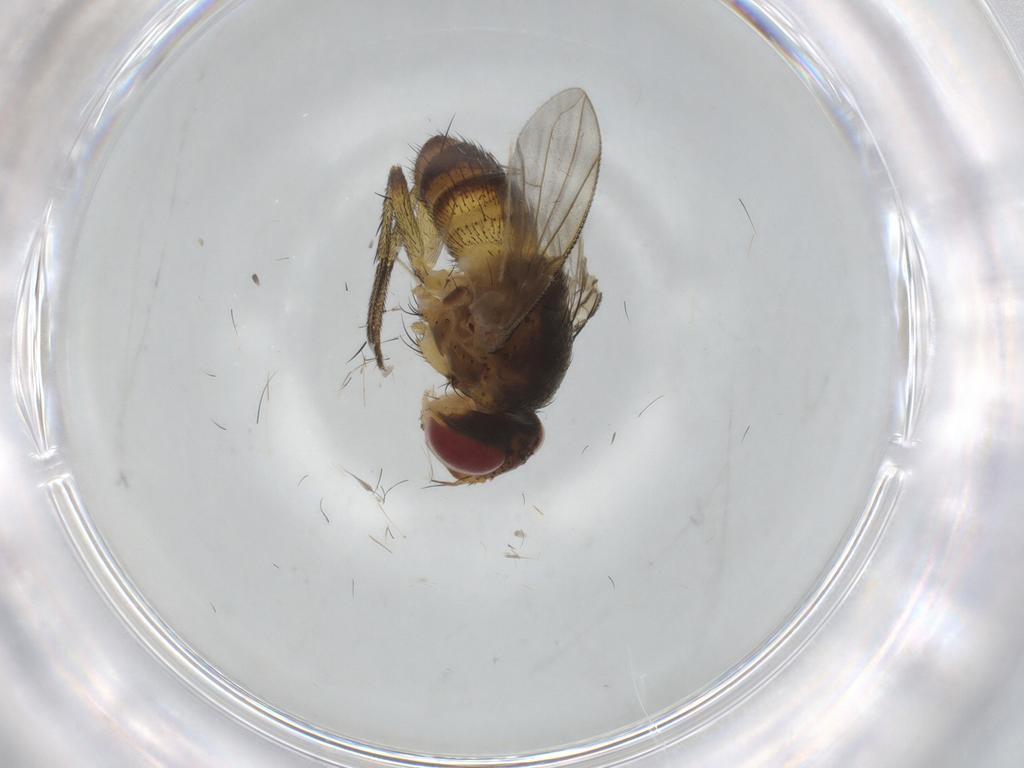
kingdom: Animalia
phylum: Arthropoda
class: Insecta
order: Diptera
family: Tachinidae
